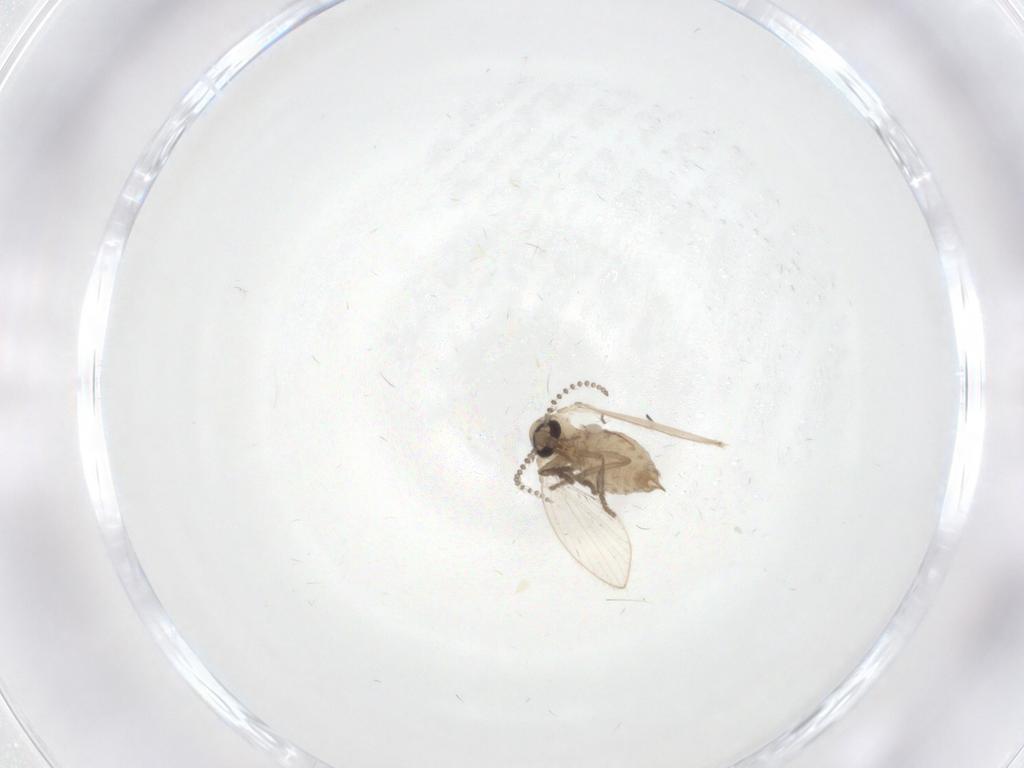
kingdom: Animalia
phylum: Arthropoda
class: Insecta
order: Diptera
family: Psychodidae
